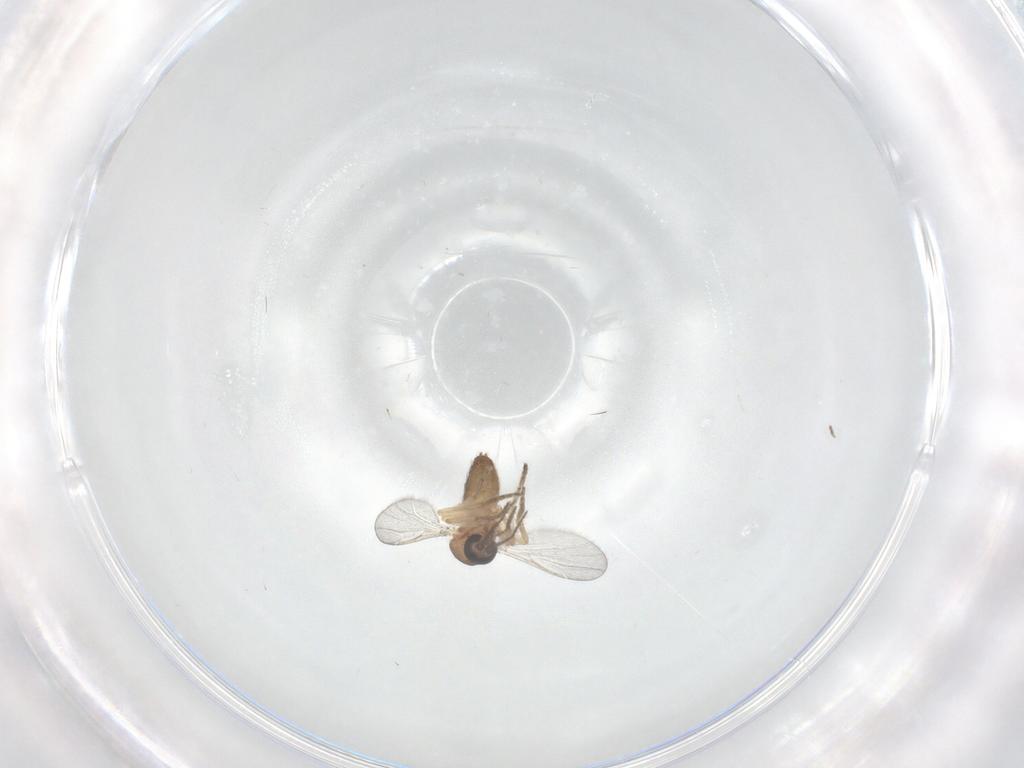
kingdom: Animalia
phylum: Arthropoda
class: Insecta
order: Diptera
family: Ceratopogonidae
